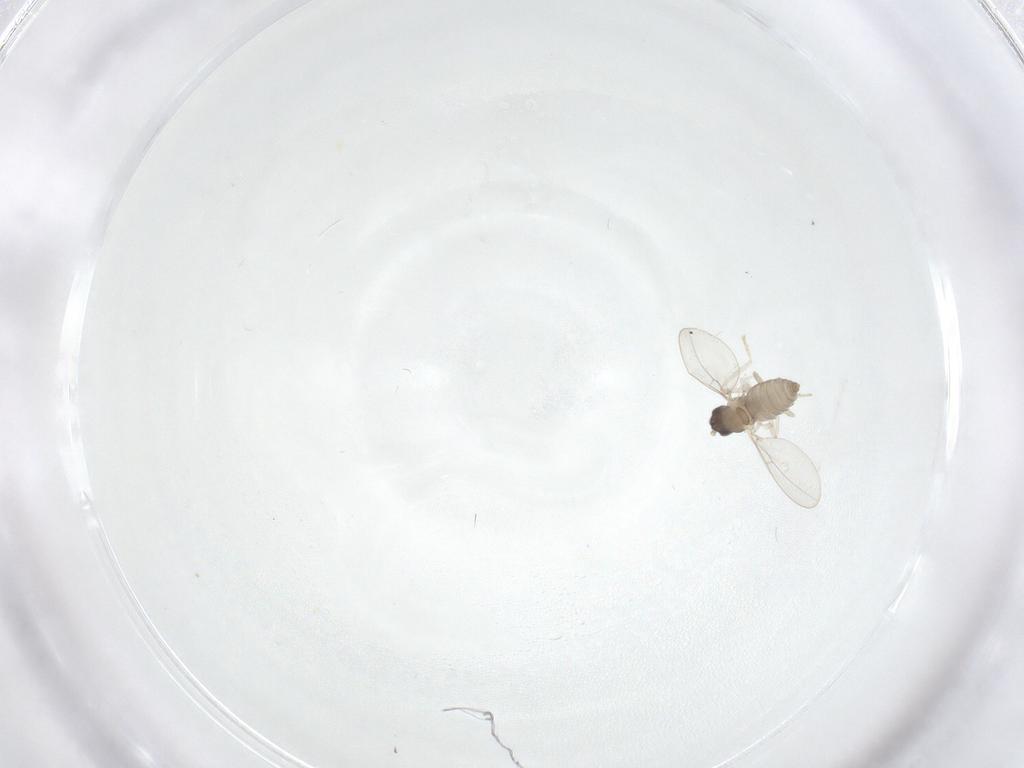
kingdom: Animalia
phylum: Arthropoda
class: Insecta
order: Diptera
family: Cecidomyiidae
